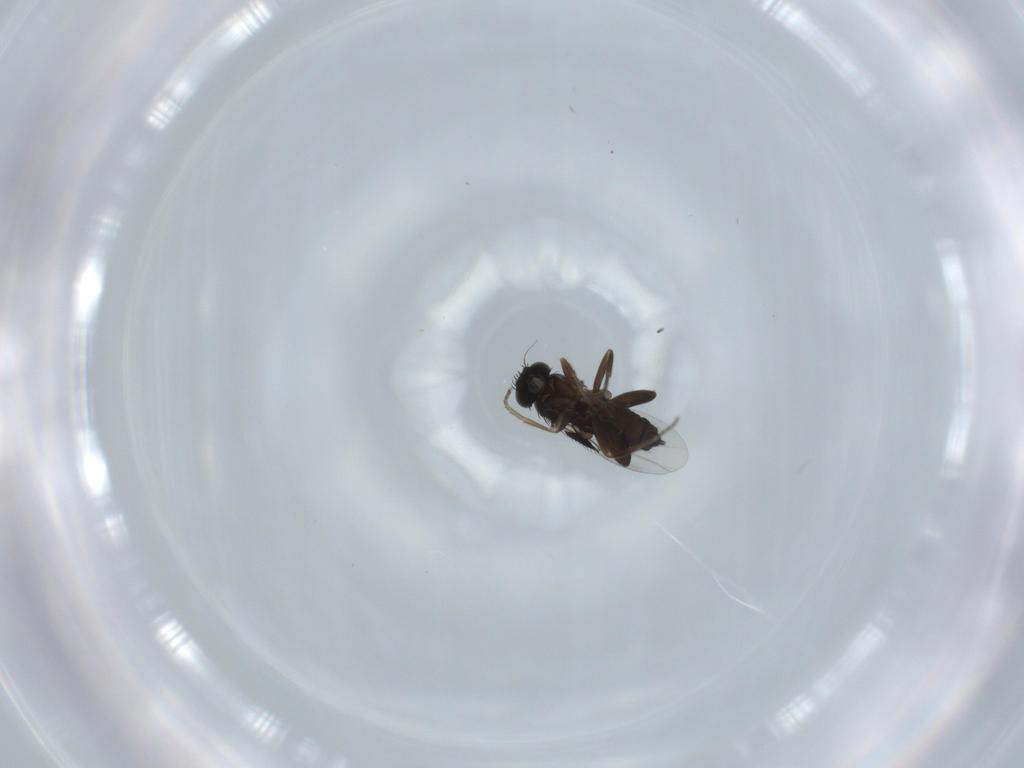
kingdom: Animalia
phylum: Arthropoda
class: Insecta
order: Diptera
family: Phoridae
